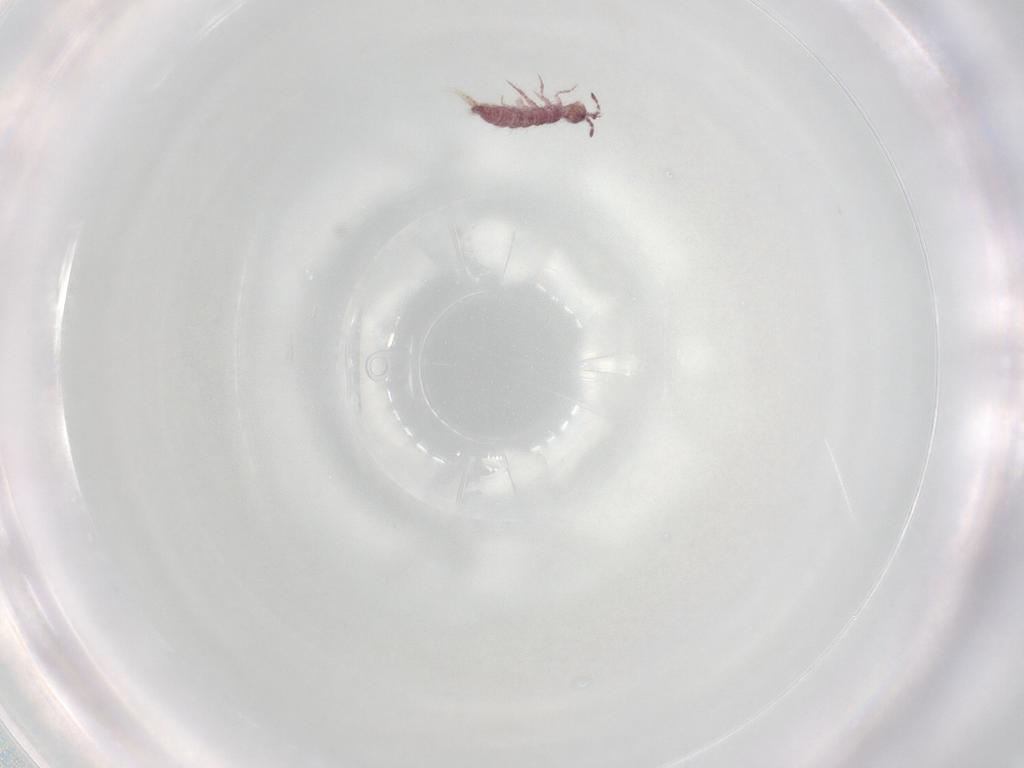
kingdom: Animalia
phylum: Arthropoda
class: Collembola
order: Entomobryomorpha
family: Isotomidae
